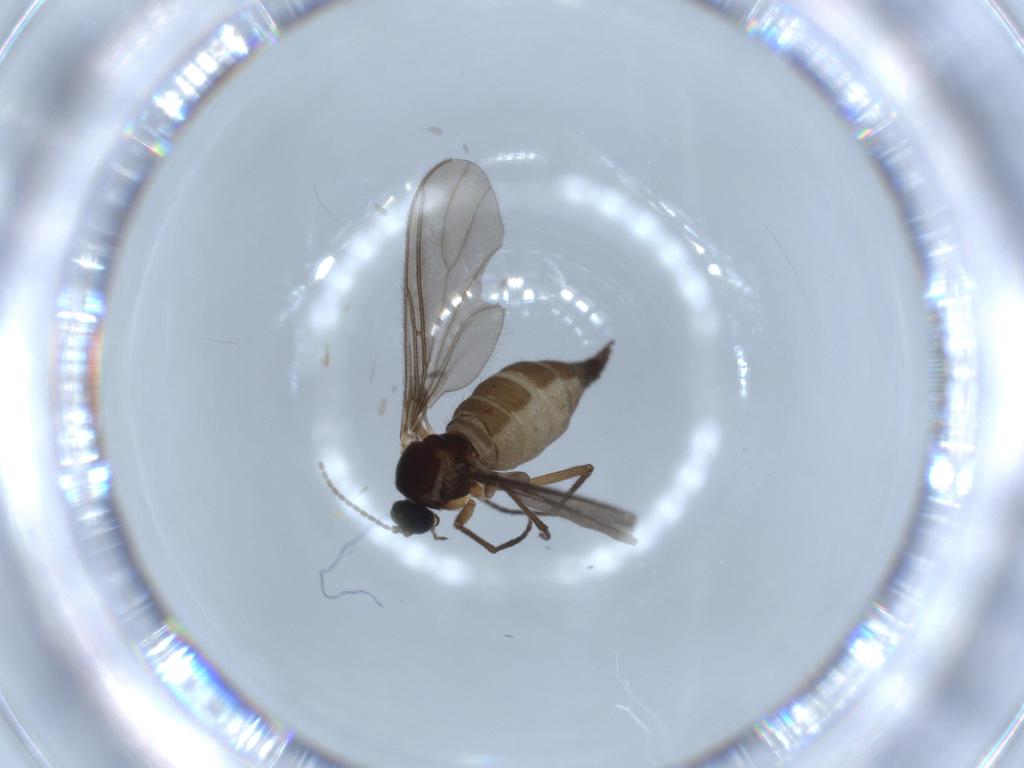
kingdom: Animalia
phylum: Arthropoda
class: Insecta
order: Diptera
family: Sciaridae
